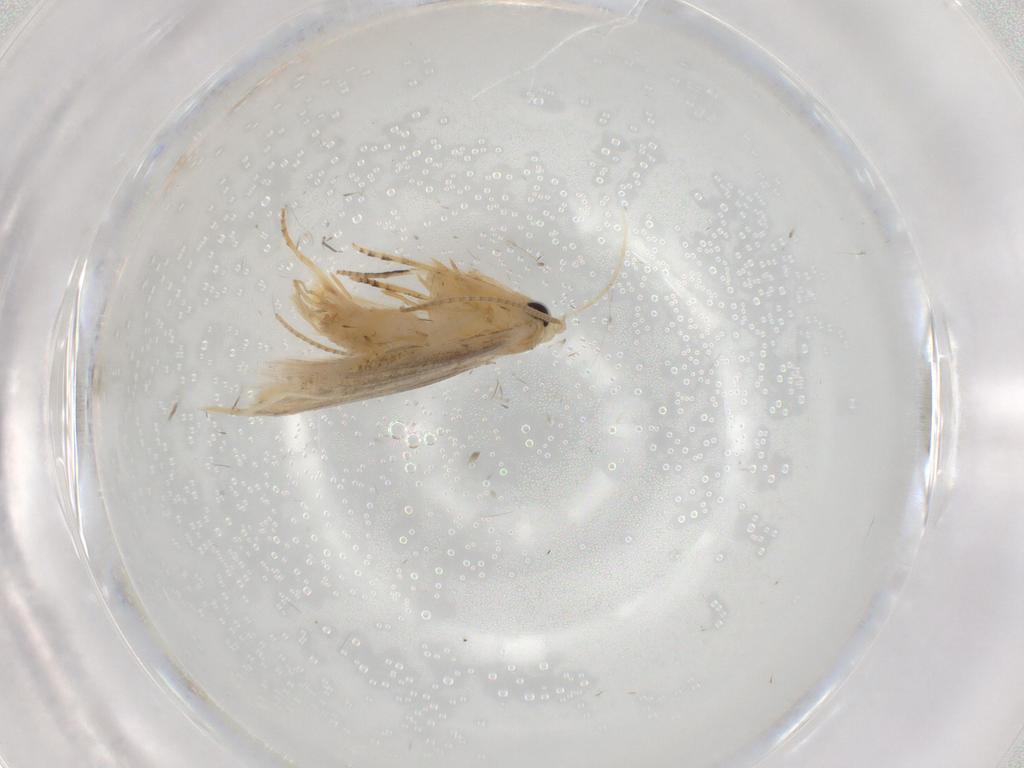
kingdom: Animalia
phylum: Arthropoda
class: Insecta
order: Lepidoptera
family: Bucculatricidae
